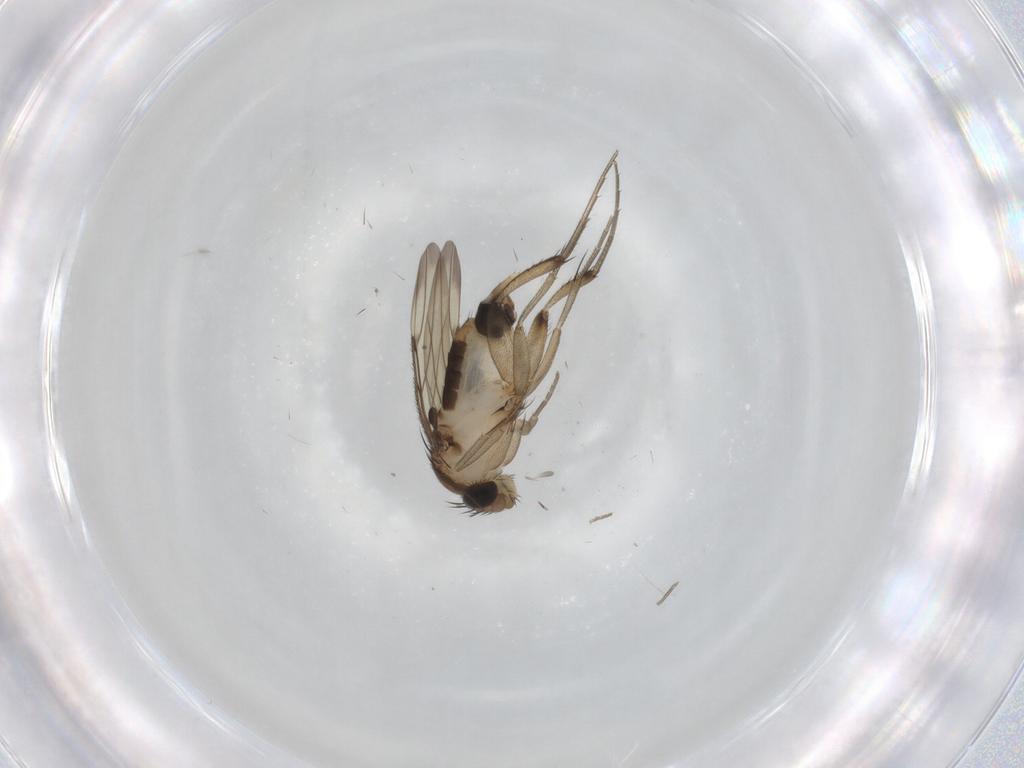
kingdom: Animalia
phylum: Arthropoda
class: Insecta
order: Diptera
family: Phoridae
